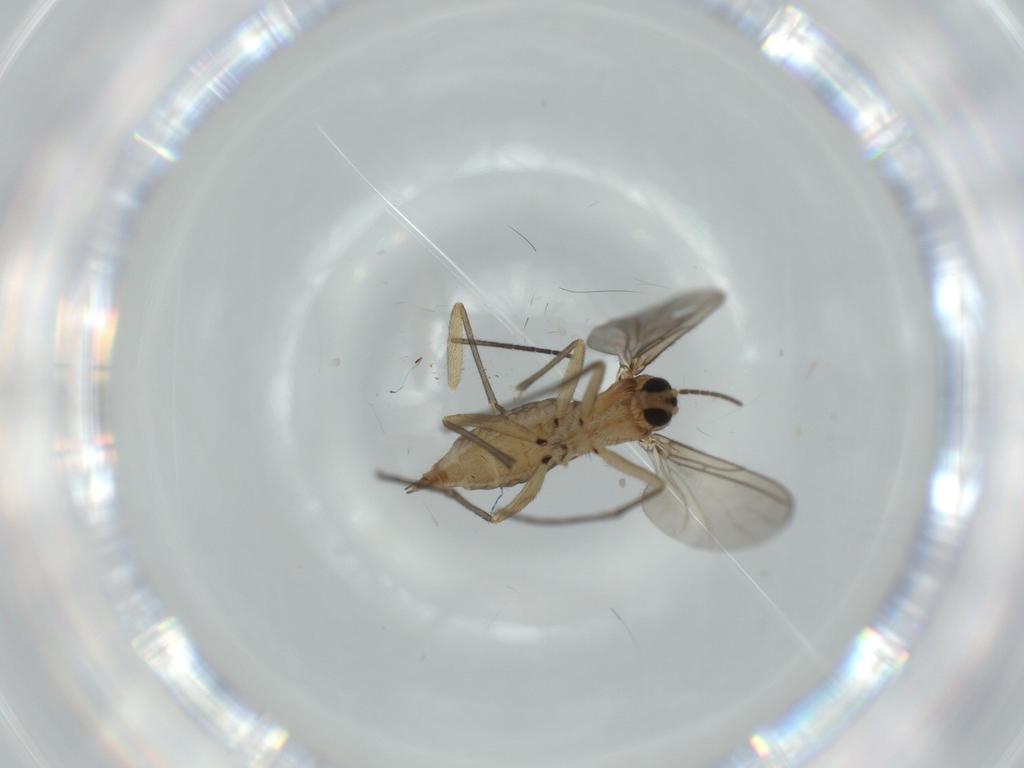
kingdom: Animalia
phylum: Arthropoda
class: Insecta
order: Diptera
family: Sciaridae
